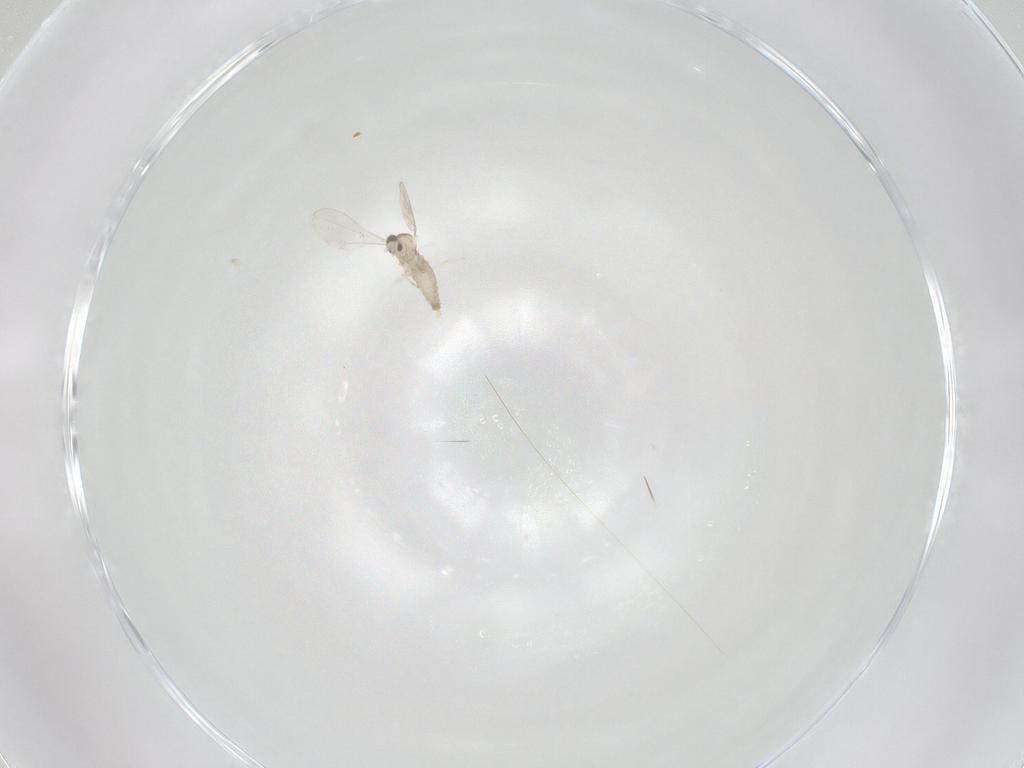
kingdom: Animalia
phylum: Arthropoda
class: Insecta
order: Diptera
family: Cecidomyiidae
